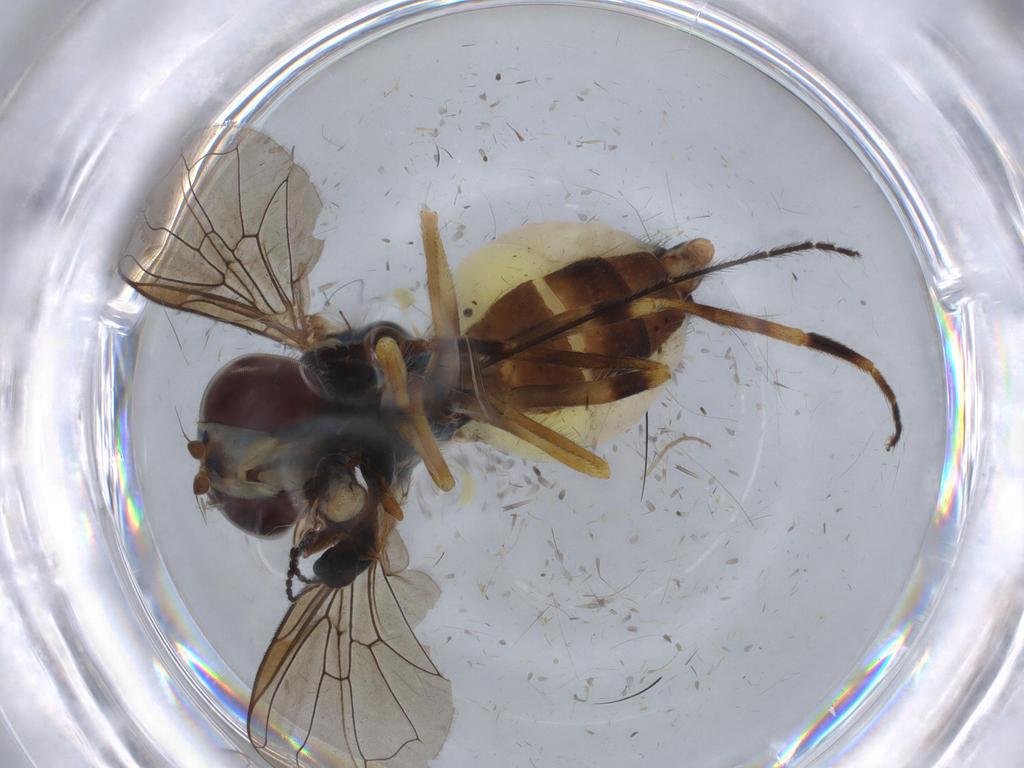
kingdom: Animalia
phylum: Arthropoda
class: Insecta
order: Diptera
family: Syrphidae
